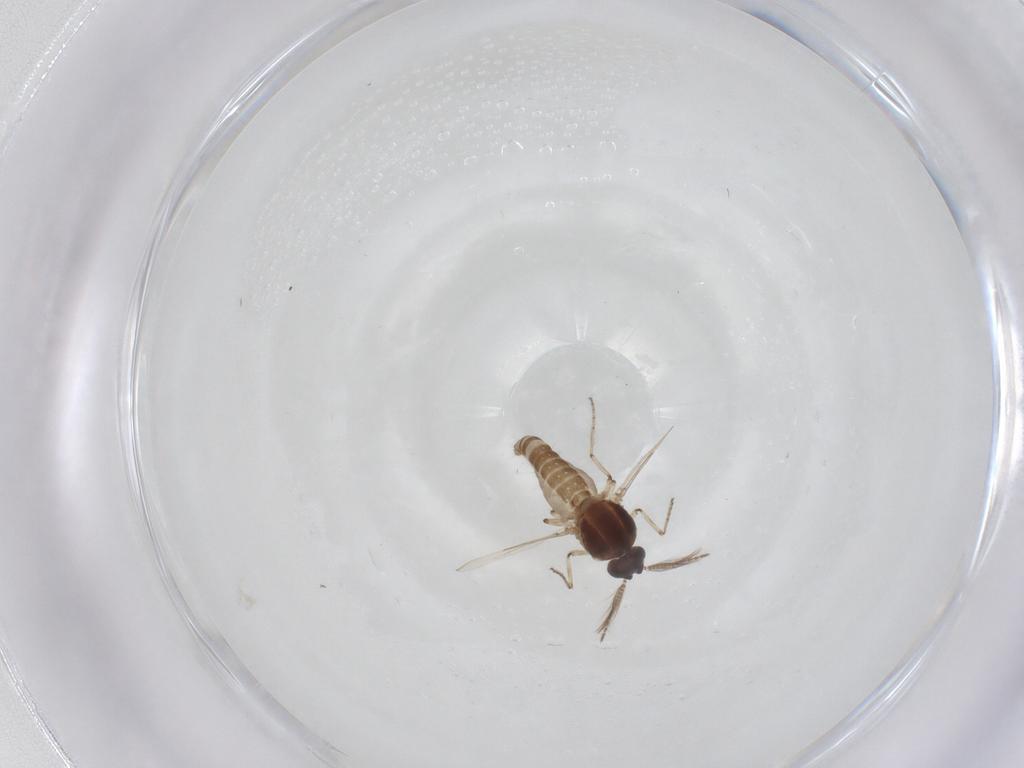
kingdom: Animalia
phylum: Arthropoda
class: Insecta
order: Diptera
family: Ceratopogonidae
